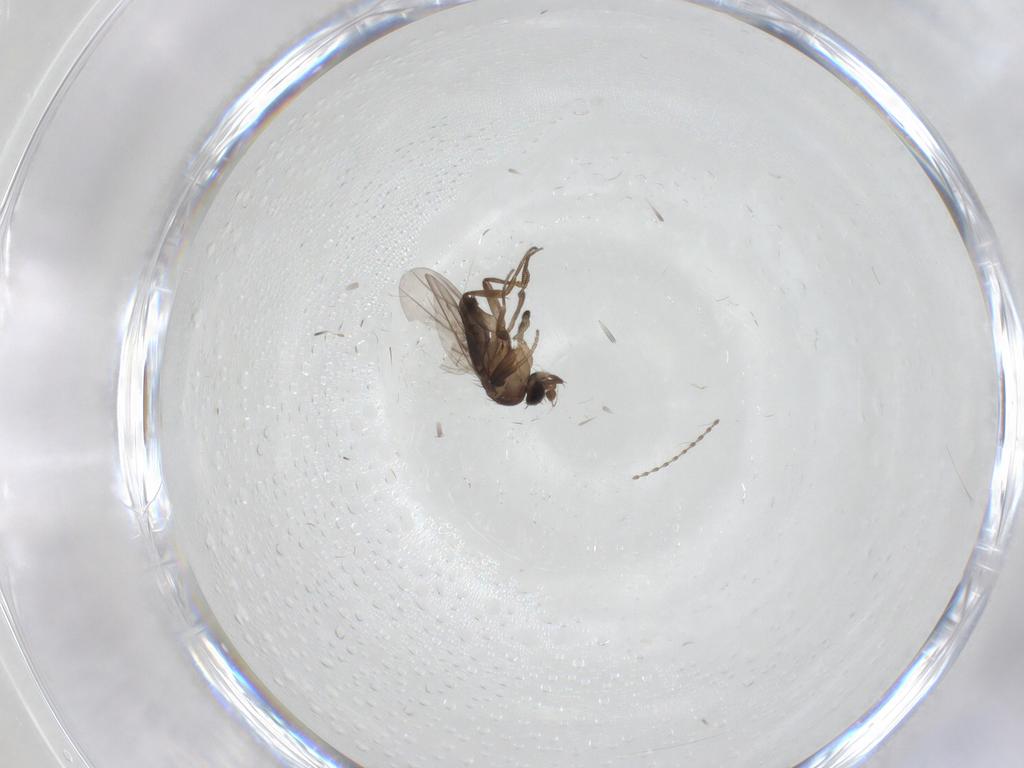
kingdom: Animalia
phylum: Arthropoda
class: Insecta
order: Diptera
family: Phoridae
